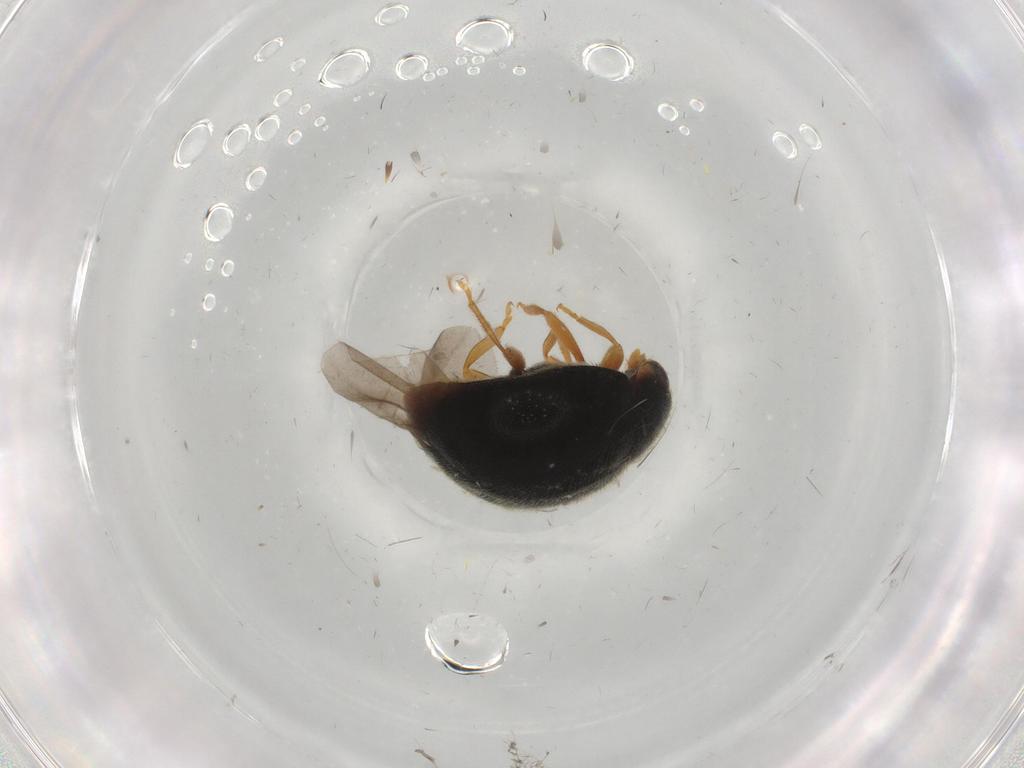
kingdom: Animalia
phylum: Arthropoda
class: Insecta
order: Coleoptera
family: Coccinellidae
